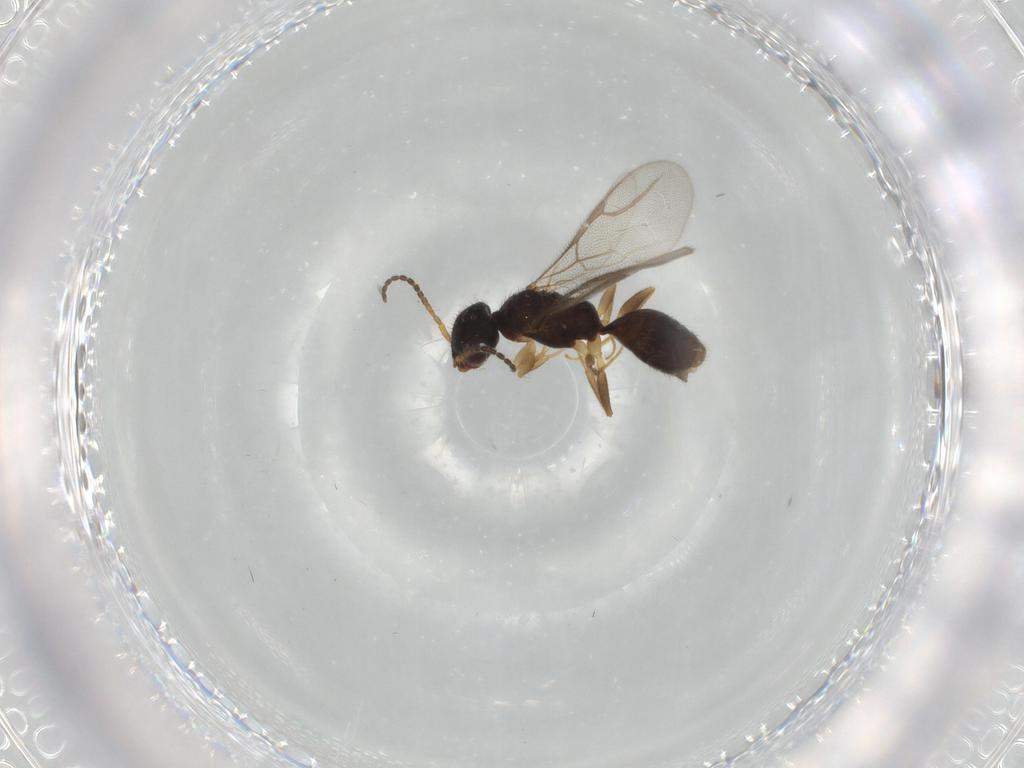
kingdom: Animalia
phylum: Arthropoda
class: Insecta
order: Hymenoptera
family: Bethylidae
